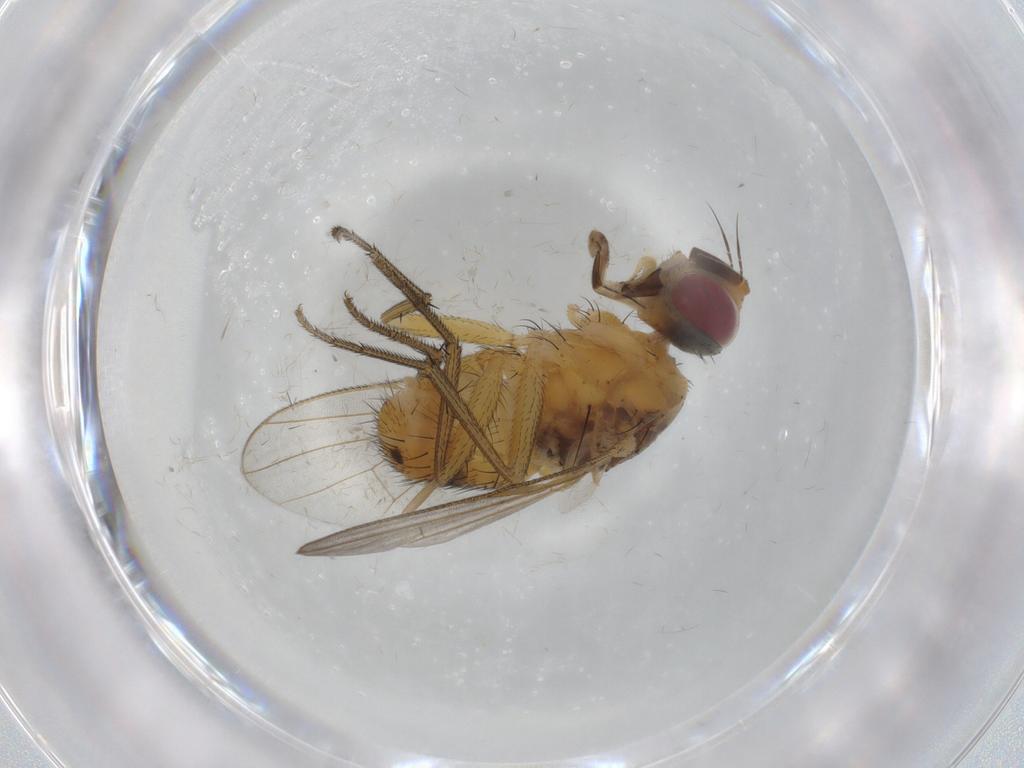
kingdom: Animalia
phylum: Arthropoda
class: Insecta
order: Diptera
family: Muscidae
